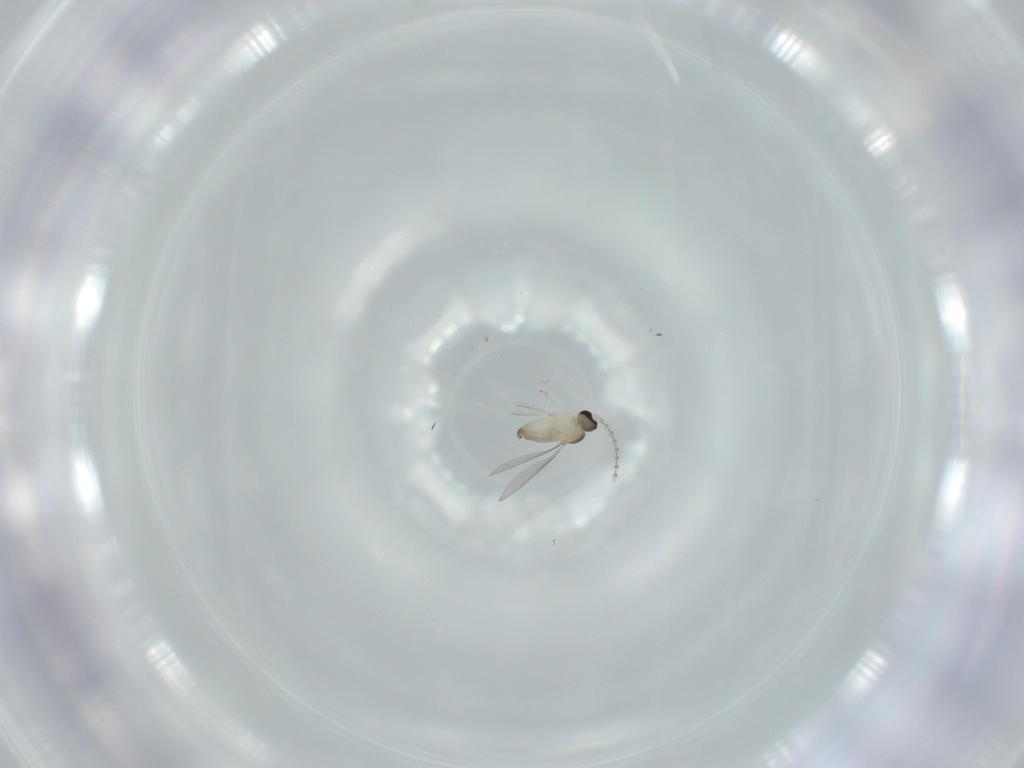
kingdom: Animalia
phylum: Arthropoda
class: Insecta
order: Diptera
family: Cecidomyiidae
